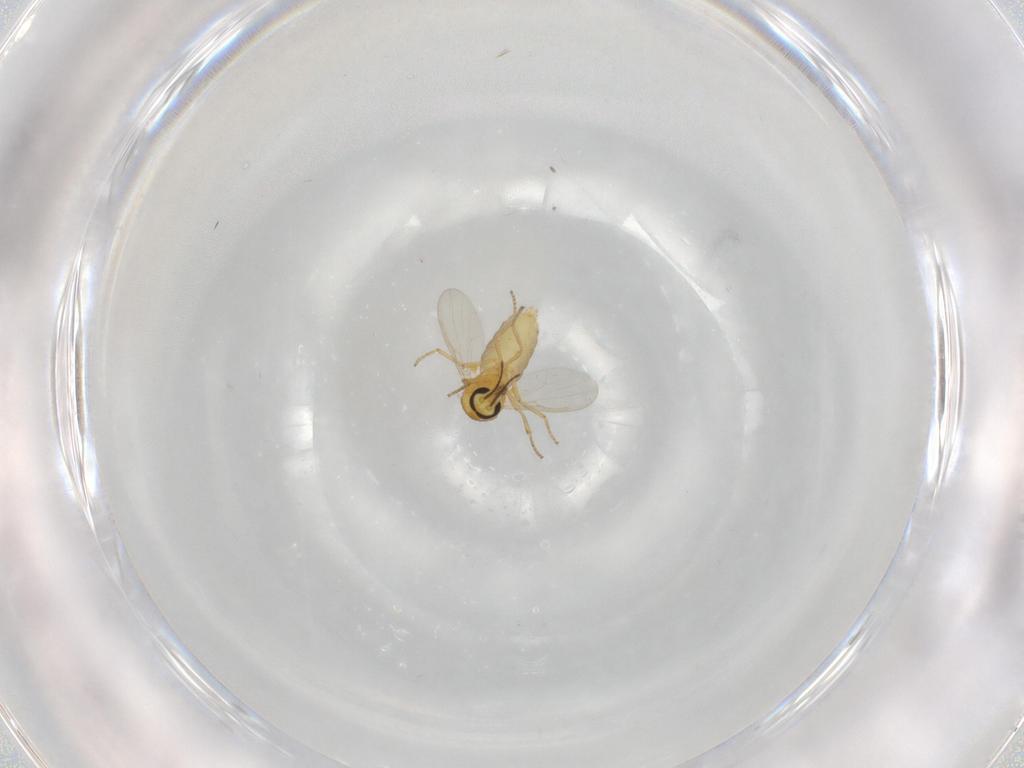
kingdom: Animalia
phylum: Arthropoda
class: Insecta
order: Diptera
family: Ceratopogonidae
